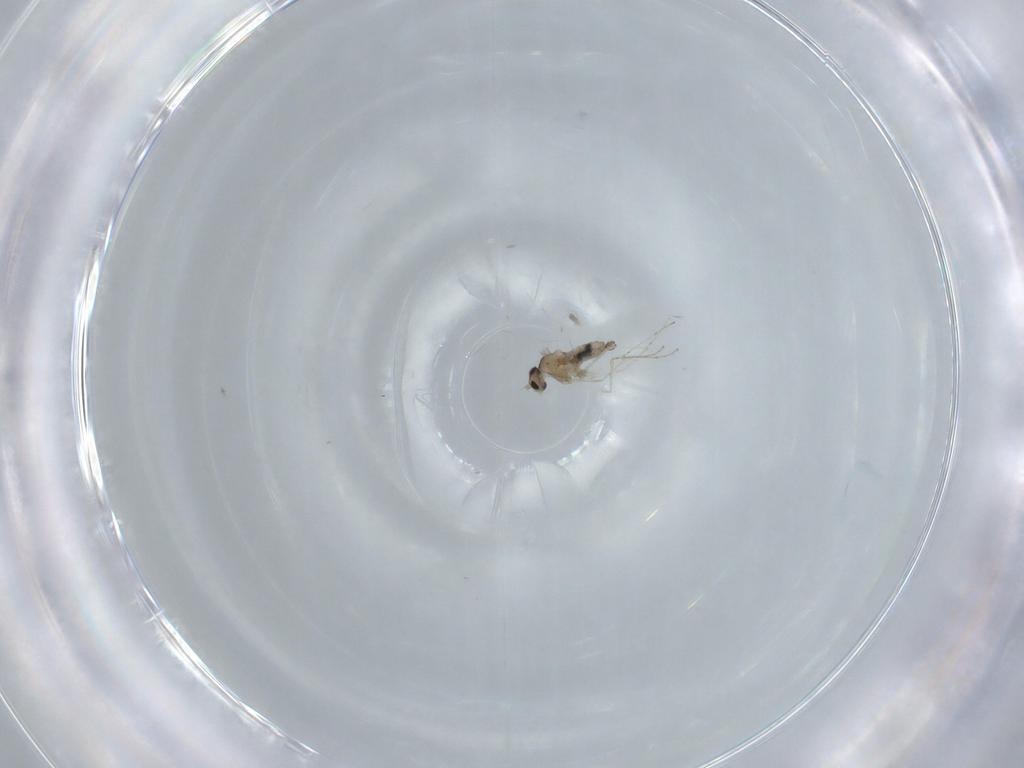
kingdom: Animalia
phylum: Arthropoda
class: Insecta
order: Diptera
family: Cecidomyiidae
